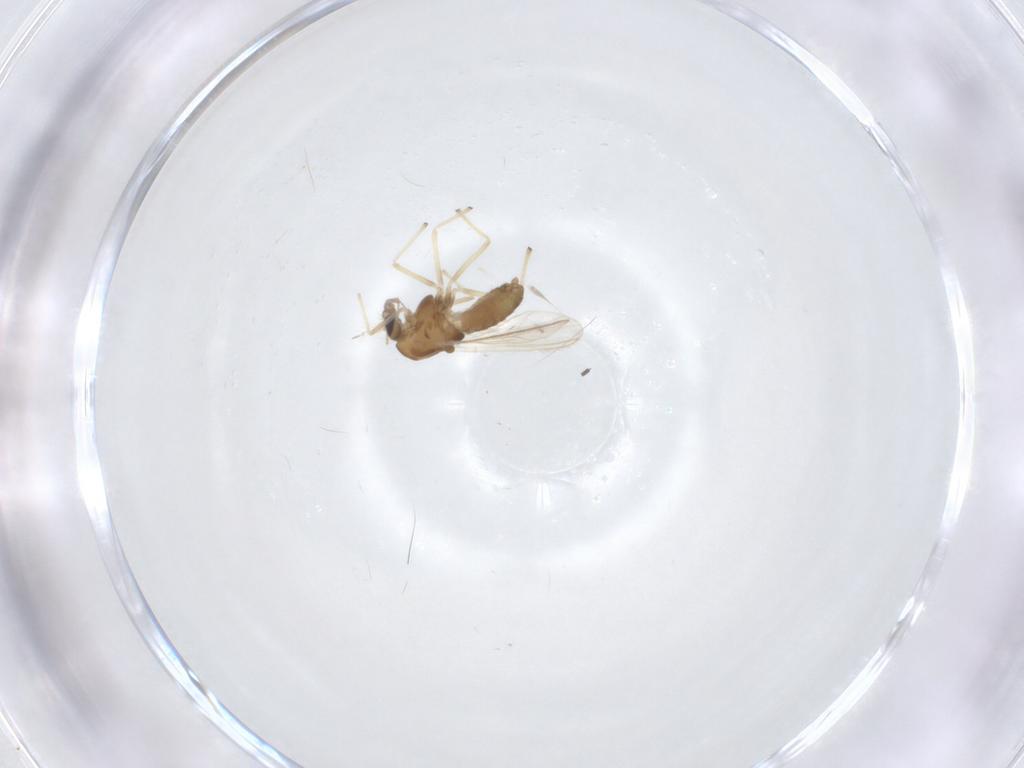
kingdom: Animalia
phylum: Arthropoda
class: Insecta
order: Diptera
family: Chironomidae
